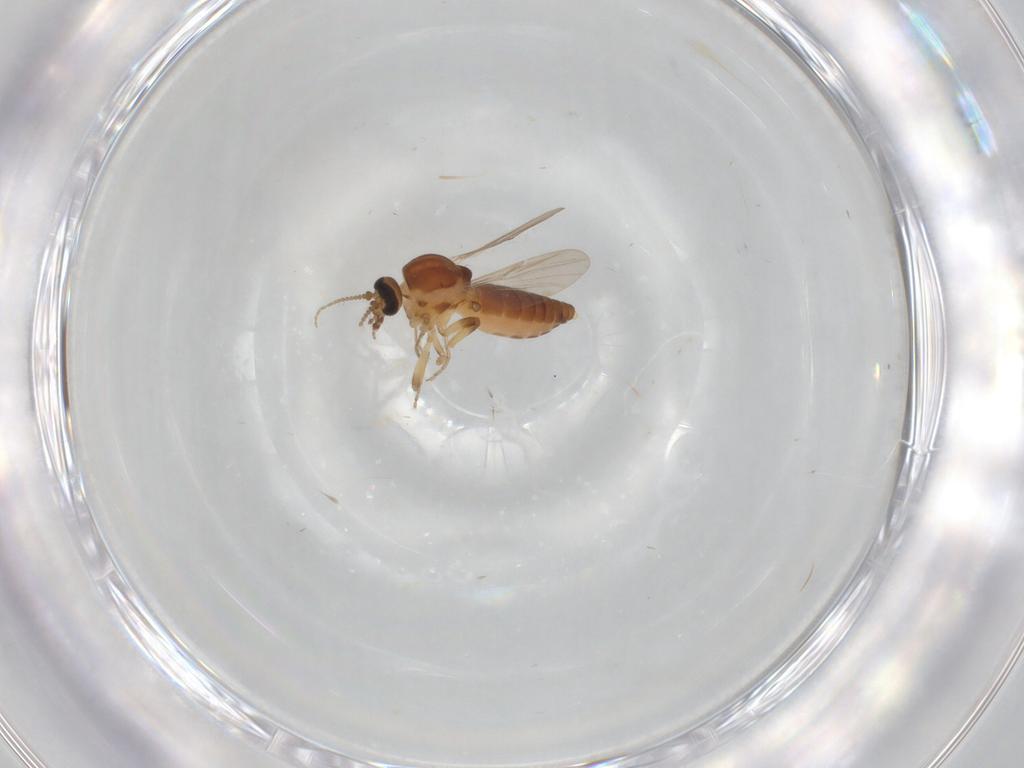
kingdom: Animalia
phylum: Arthropoda
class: Insecta
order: Diptera
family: Ceratopogonidae
